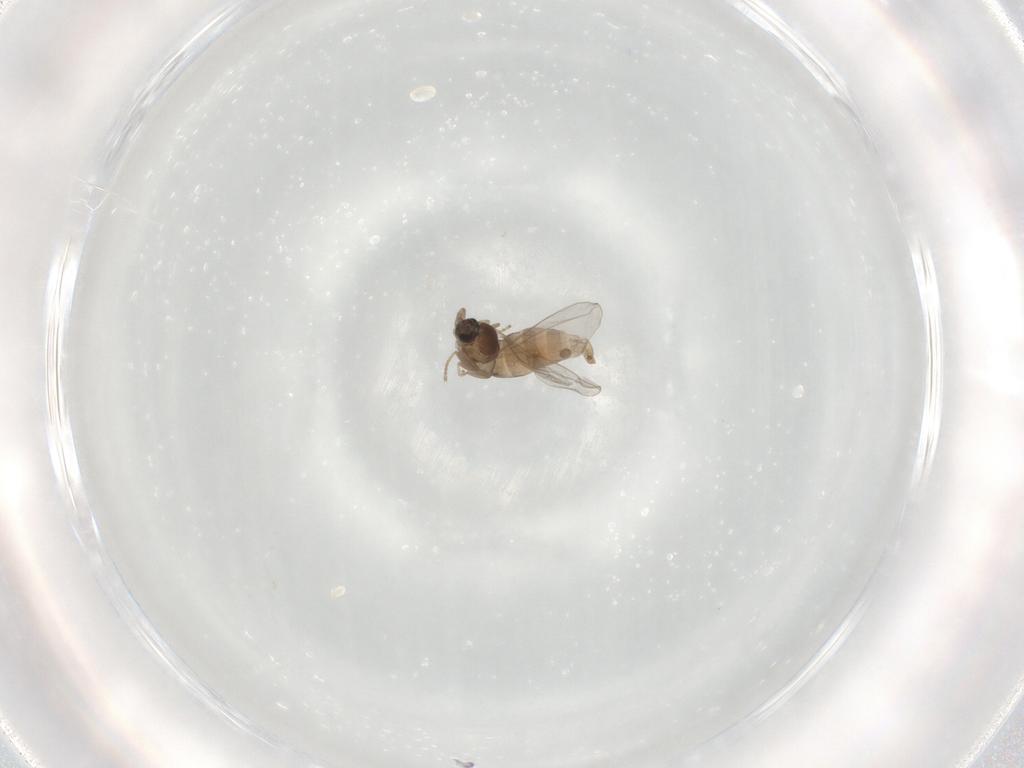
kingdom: Animalia
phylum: Arthropoda
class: Insecta
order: Diptera
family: Cecidomyiidae
